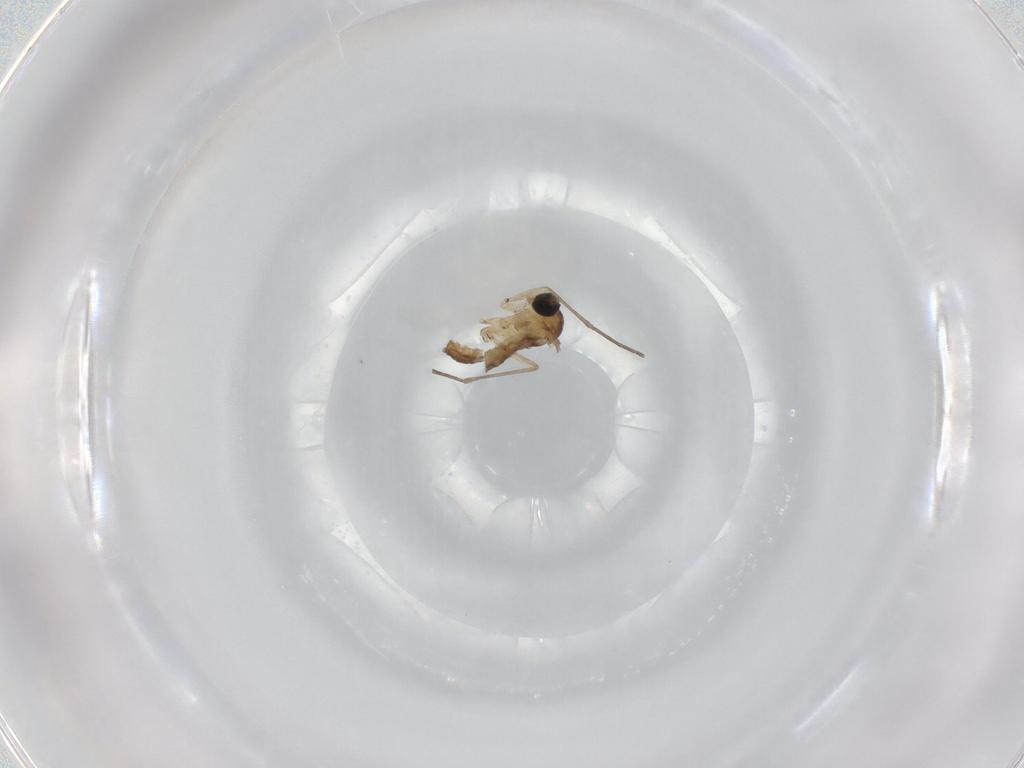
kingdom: Animalia
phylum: Arthropoda
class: Insecta
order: Diptera
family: Sciaridae
